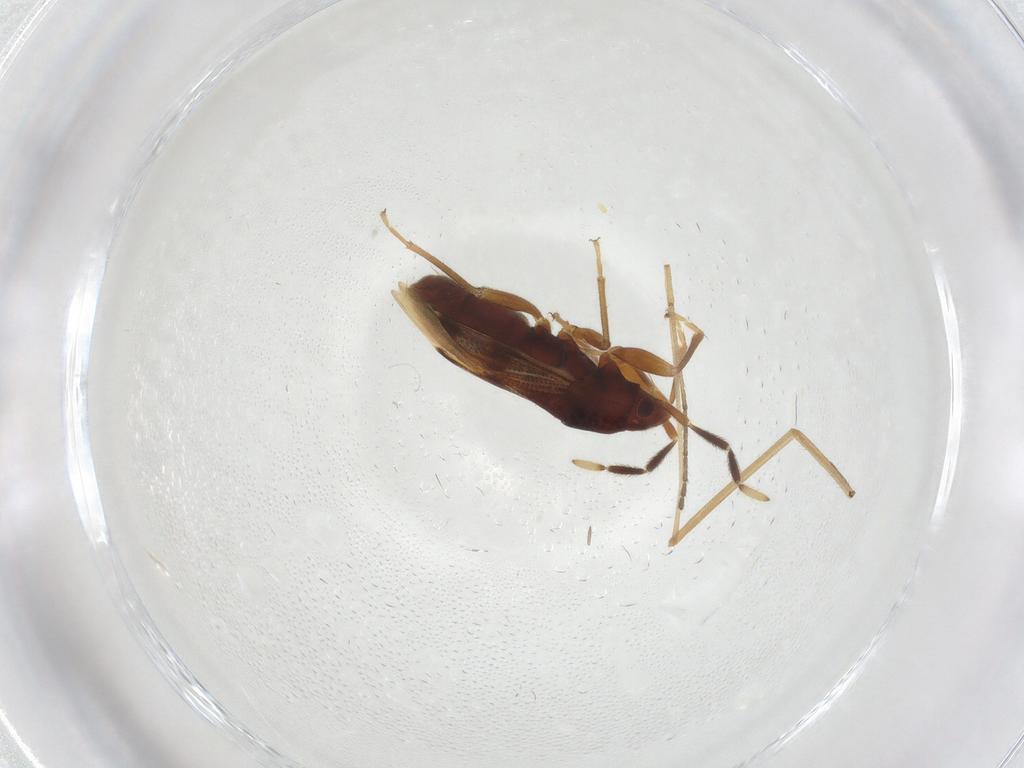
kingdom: Animalia
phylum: Arthropoda
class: Insecta
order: Hemiptera
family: Rhyparochromidae
